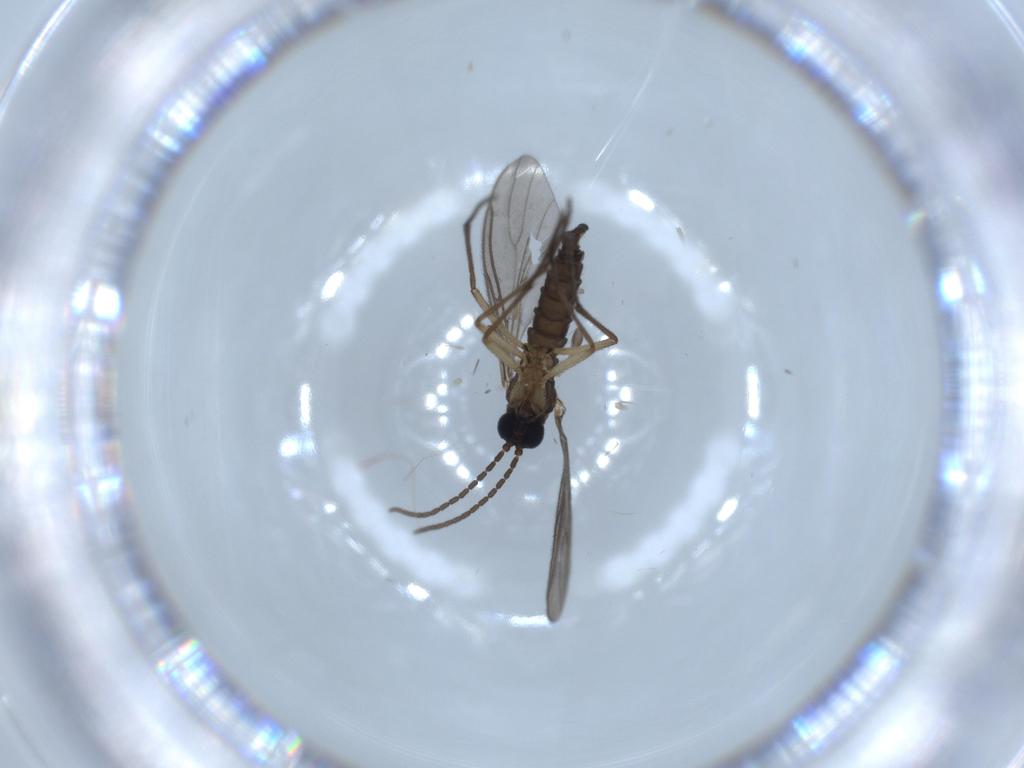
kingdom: Animalia
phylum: Arthropoda
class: Insecta
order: Diptera
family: Sciaridae
